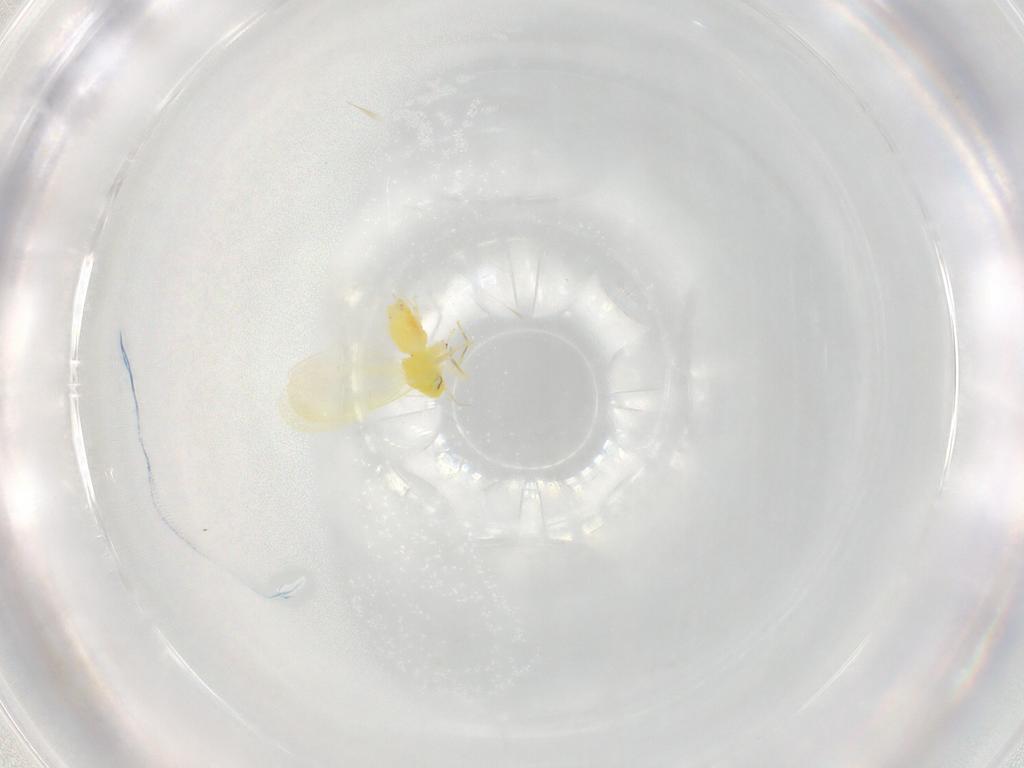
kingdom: Animalia
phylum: Arthropoda
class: Insecta
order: Hemiptera
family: Aleyrodidae
